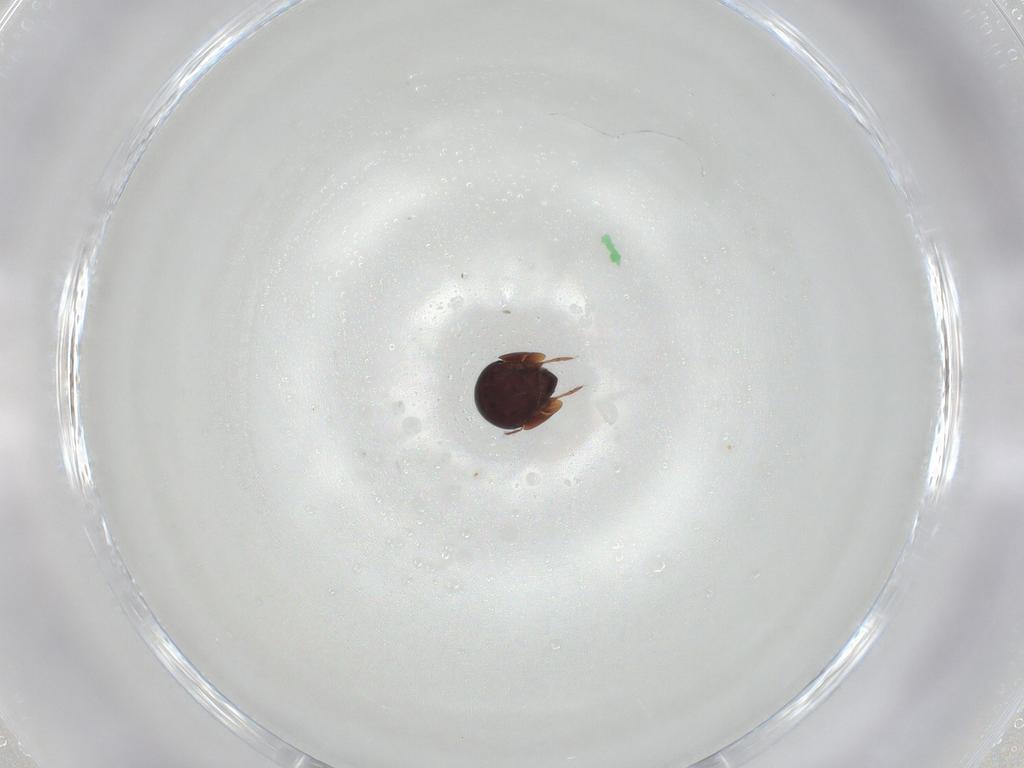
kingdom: Animalia
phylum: Arthropoda
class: Arachnida
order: Sarcoptiformes
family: Galumnidae
